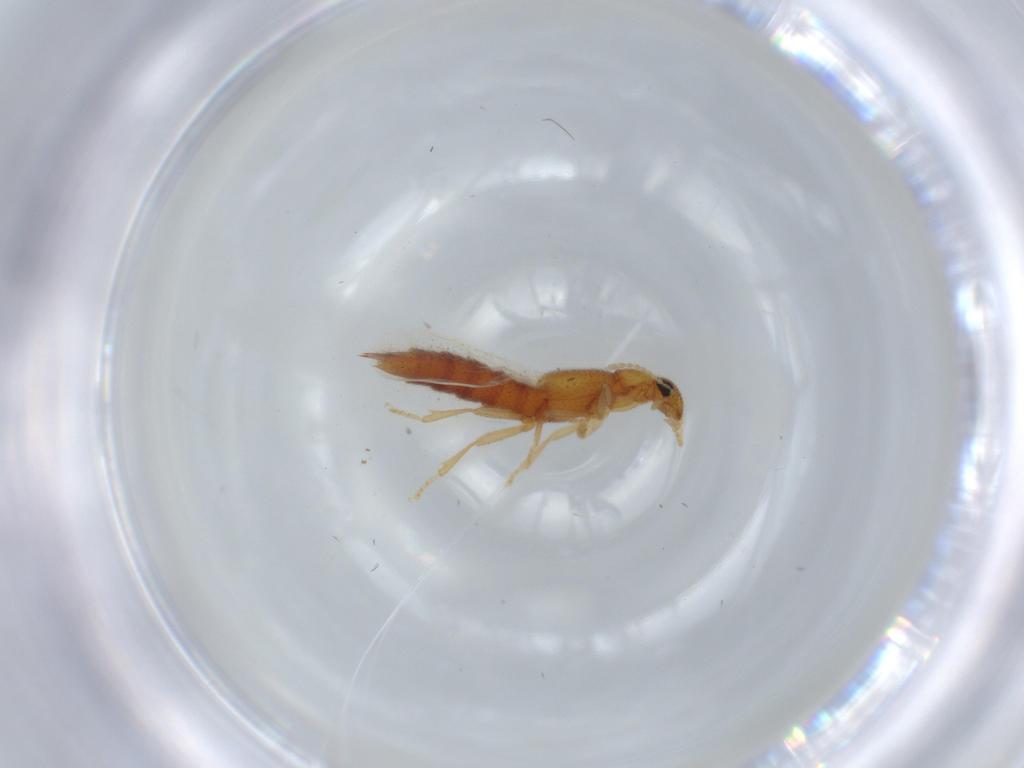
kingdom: Animalia
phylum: Arthropoda
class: Insecta
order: Coleoptera
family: Staphylinidae
